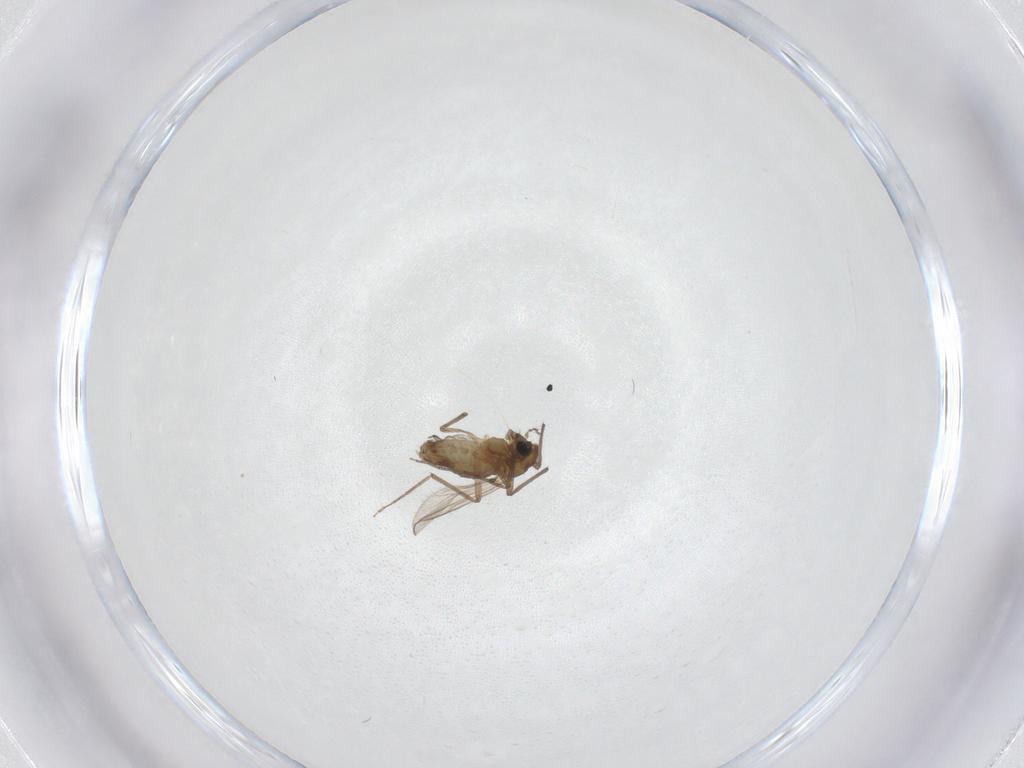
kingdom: Animalia
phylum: Arthropoda
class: Insecta
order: Diptera
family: Chironomidae
